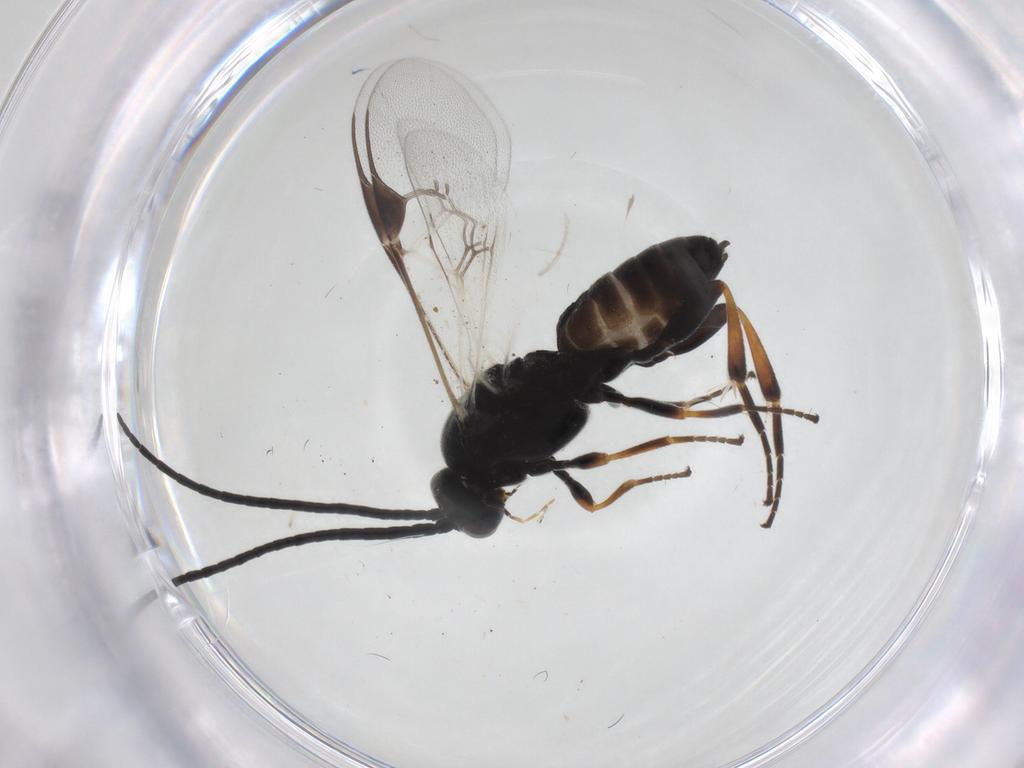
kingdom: Animalia
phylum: Arthropoda
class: Insecta
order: Hymenoptera
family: Braconidae
